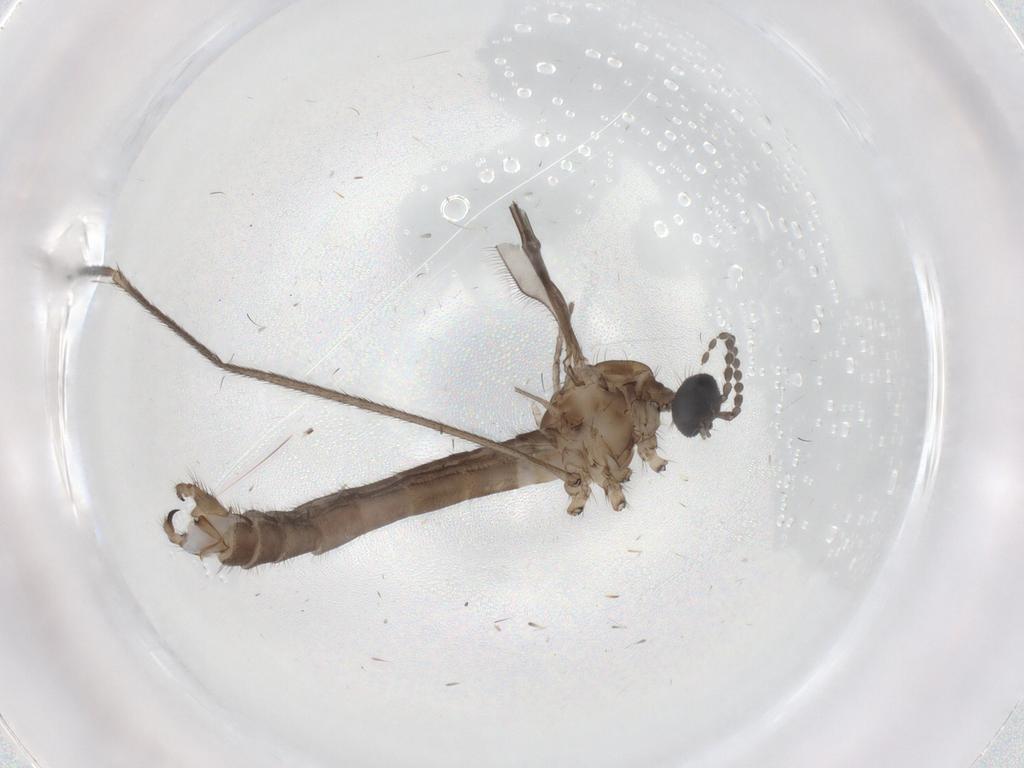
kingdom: Animalia
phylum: Arthropoda
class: Insecta
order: Diptera
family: Limoniidae
